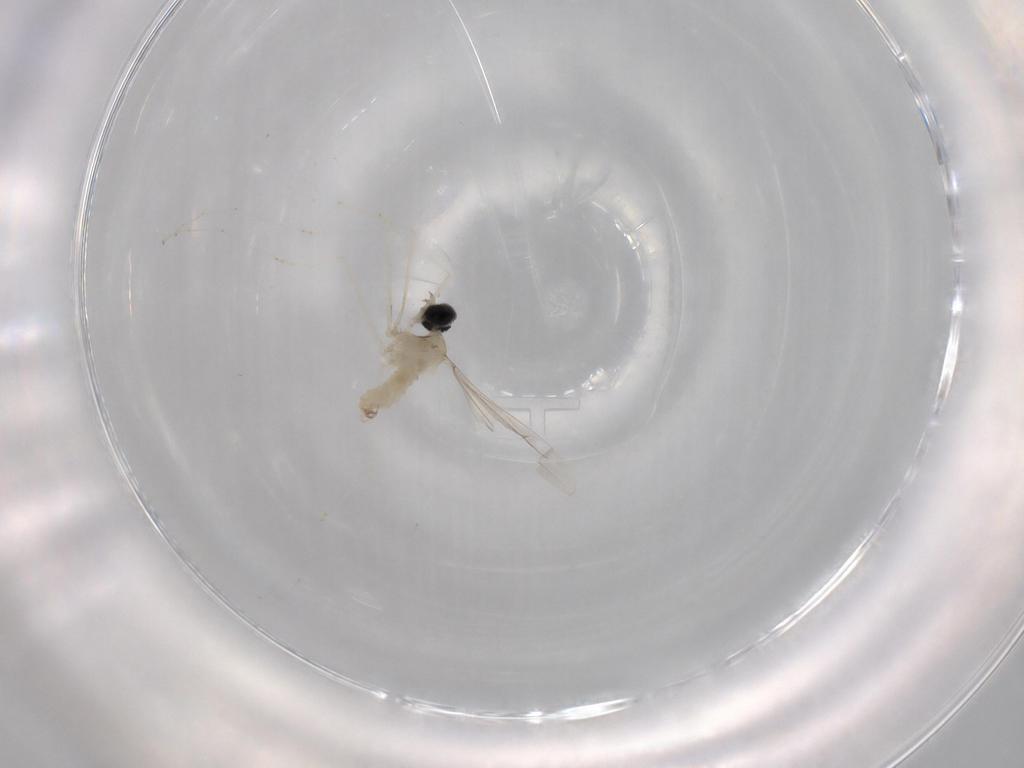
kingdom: Animalia
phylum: Arthropoda
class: Insecta
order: Diptera
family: Cecidomyiidae
